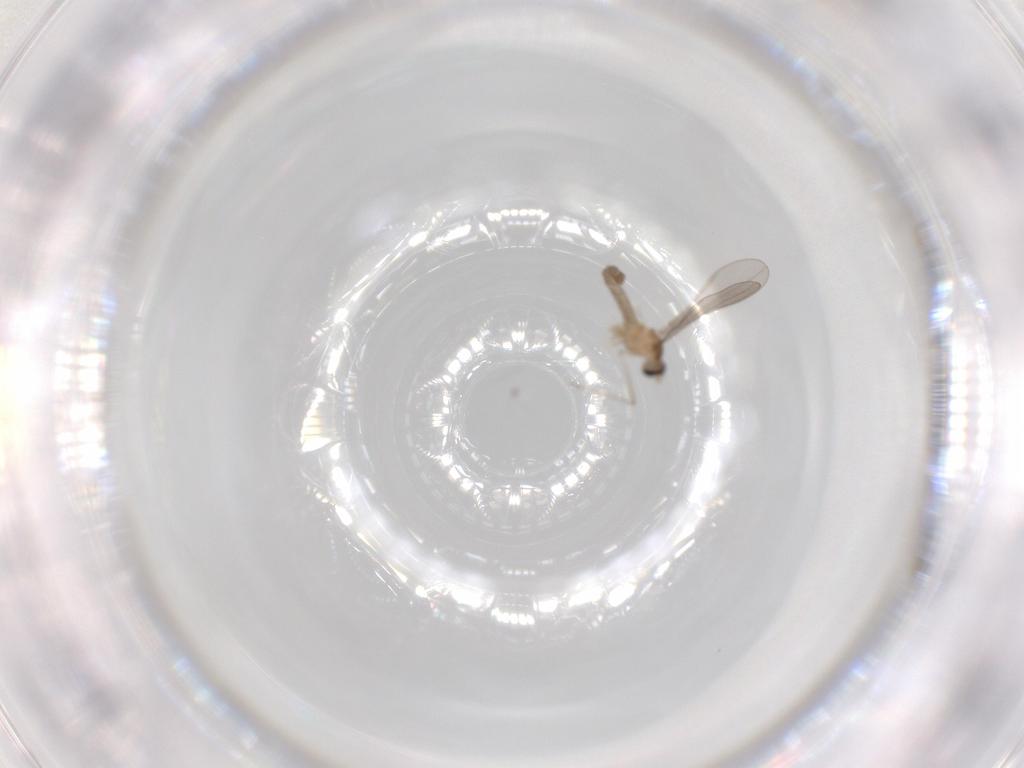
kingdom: Animalia
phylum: Arthropoda
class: Insecta
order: Diptera
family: Cecidomyiidae
